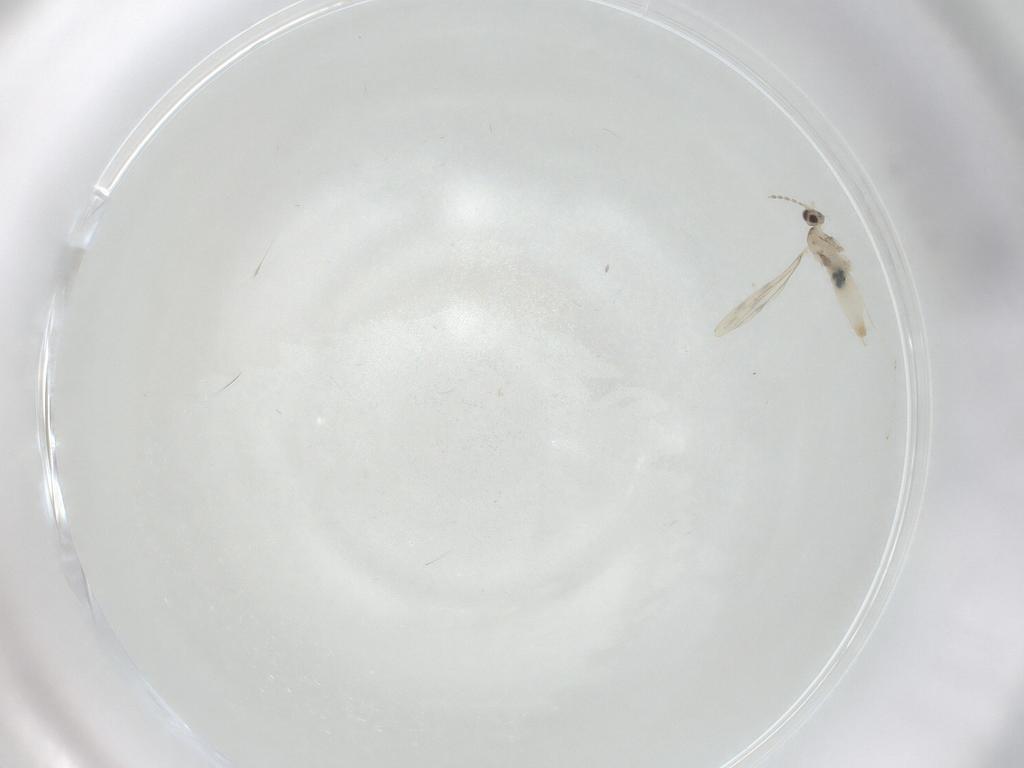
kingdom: Animalia
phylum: Arthropoda
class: Insecta
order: Diptera
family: Cecidomyiidae
